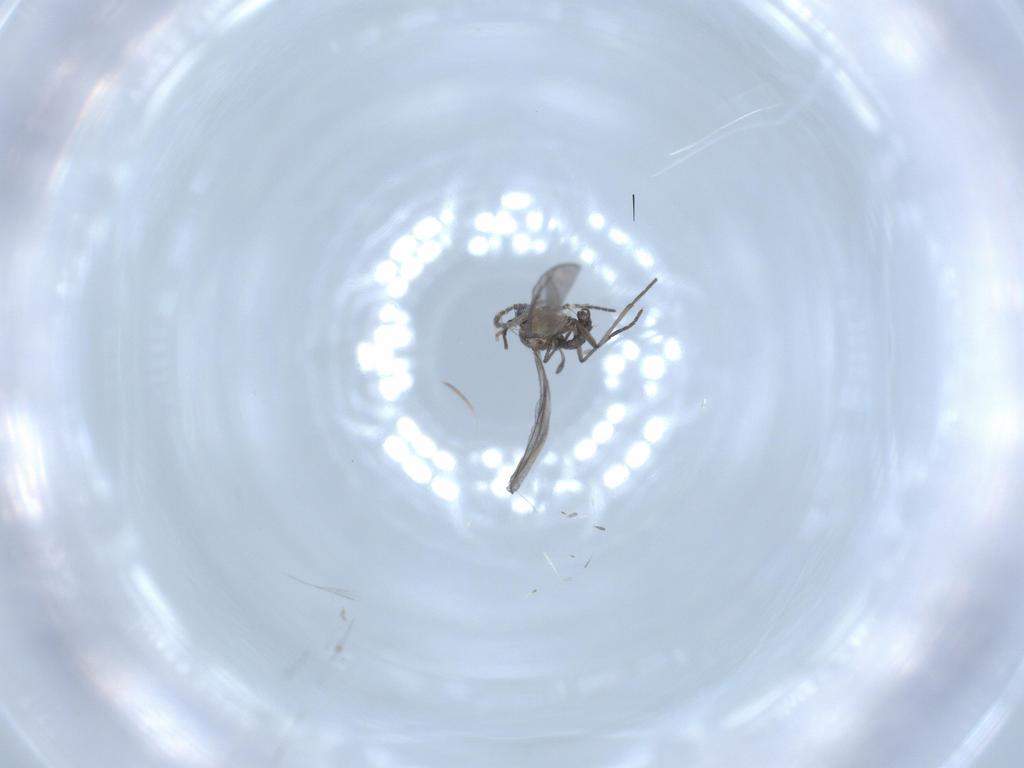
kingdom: Animalia
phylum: Arthropoda
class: Insecta
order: Diptera
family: Sciaridae
